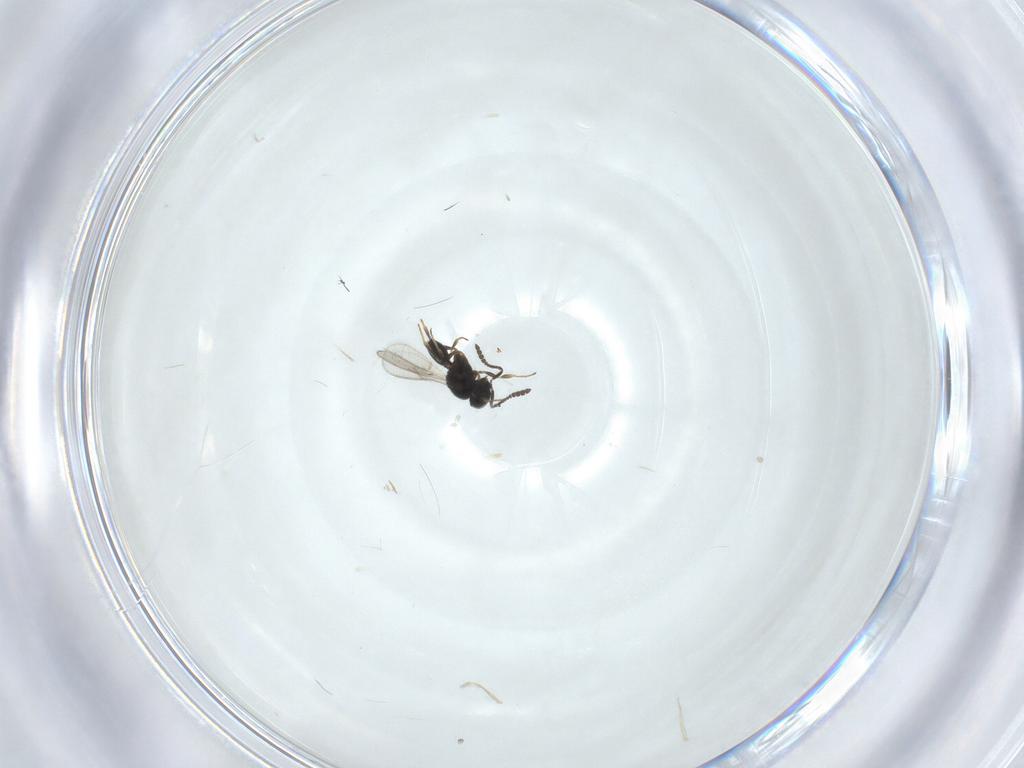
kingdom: Animalia
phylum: Arthropoda
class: Insecta
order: Hymenoptera
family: Scelionidae
